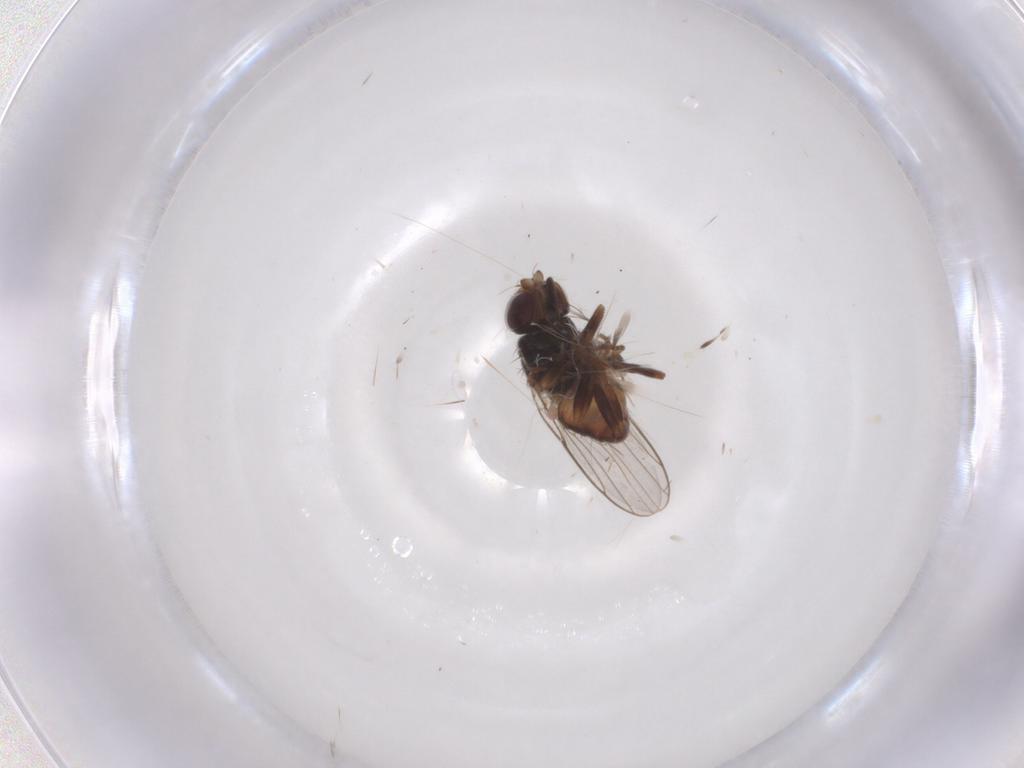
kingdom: Animalia
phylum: Arthropoda
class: Insecta
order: Diptera
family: Chloropidae
